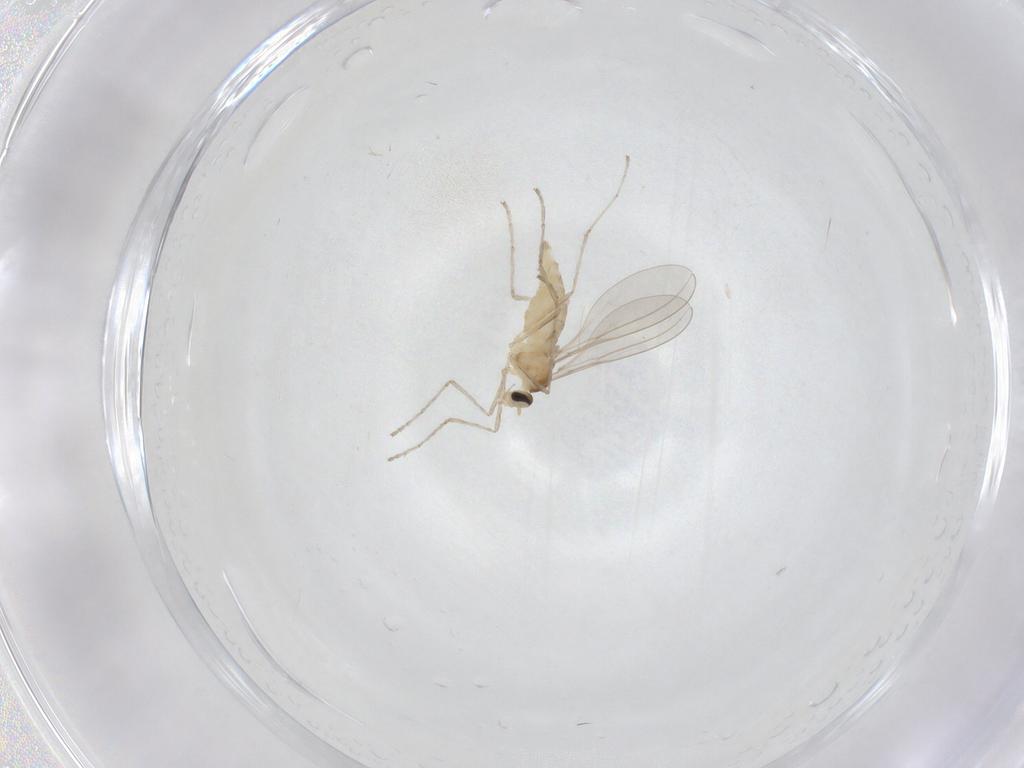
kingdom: Animalia
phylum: Arthropoda
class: Insecta
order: Diptera
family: Cecidomyiidae
